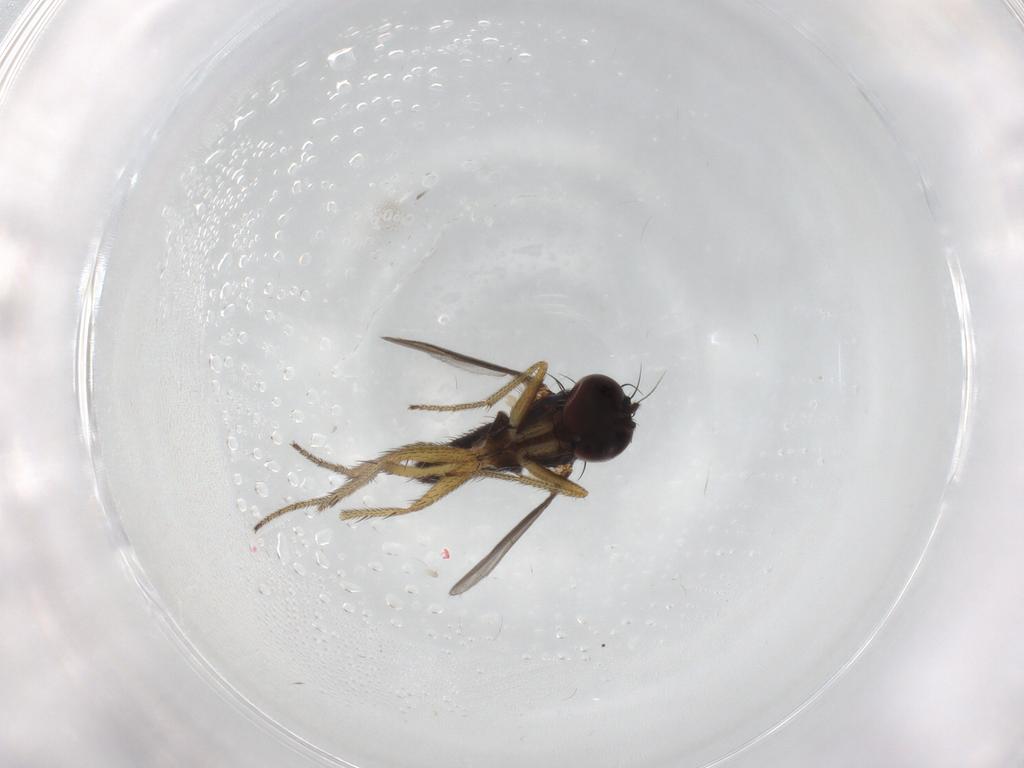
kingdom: Animalia
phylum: Arthropoda
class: Insecta
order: Diptera
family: Dolichopodidae
